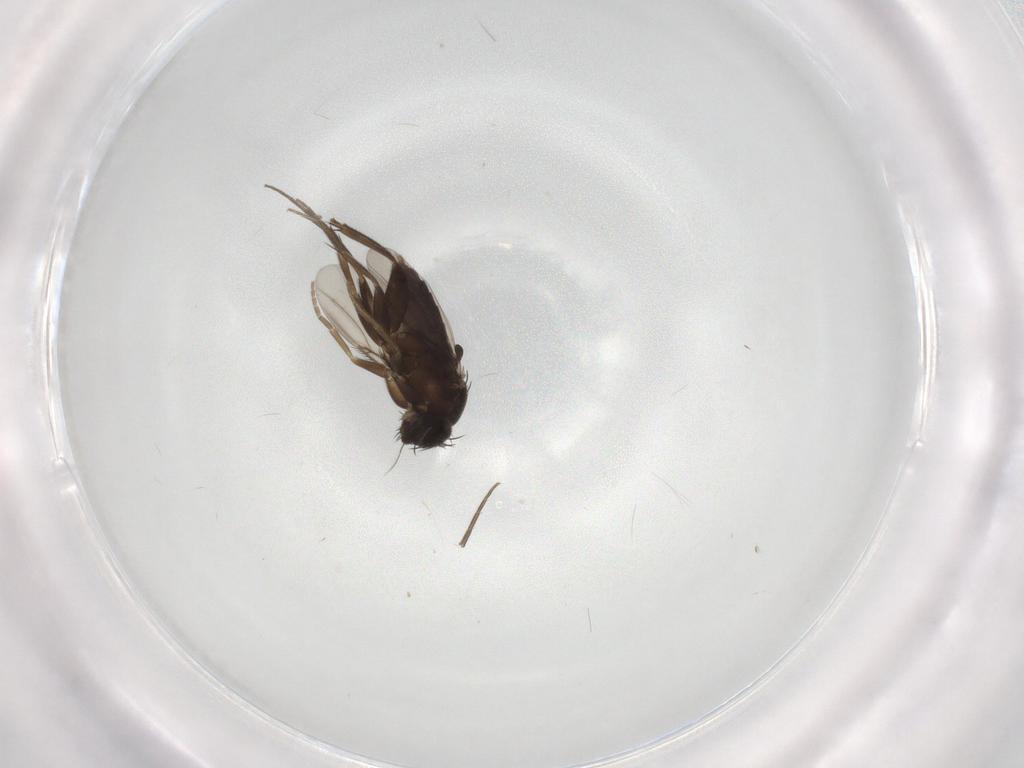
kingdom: Animalia
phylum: Arthropoda
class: Insecta
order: Diptera
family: Phoridae
